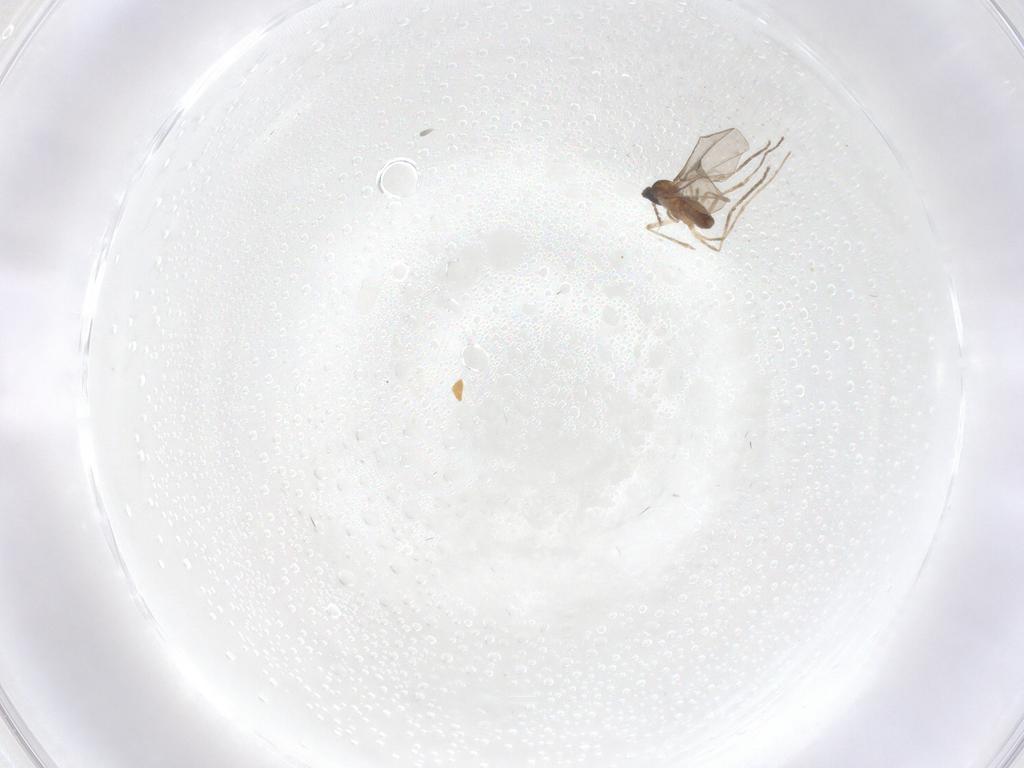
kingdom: Animalia
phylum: Arthropoda
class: Insecta
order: Diptera
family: Cecidomyiidae
